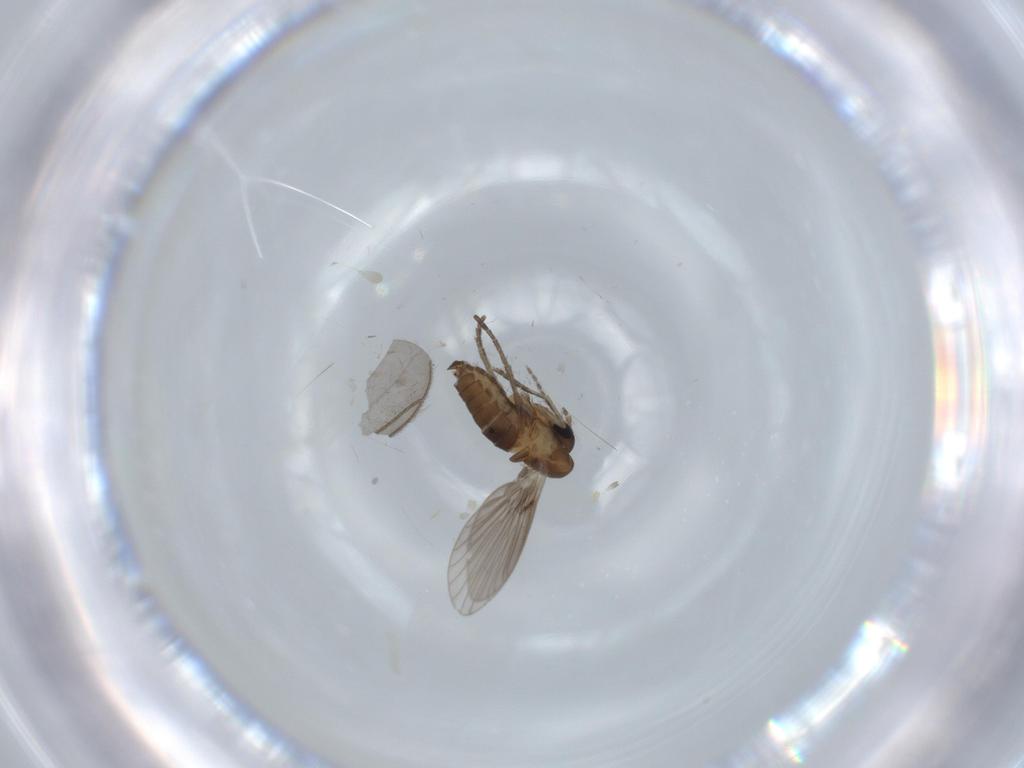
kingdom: Animalia
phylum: Arthropoda
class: Insecta
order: Diptera
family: Psychodidae
